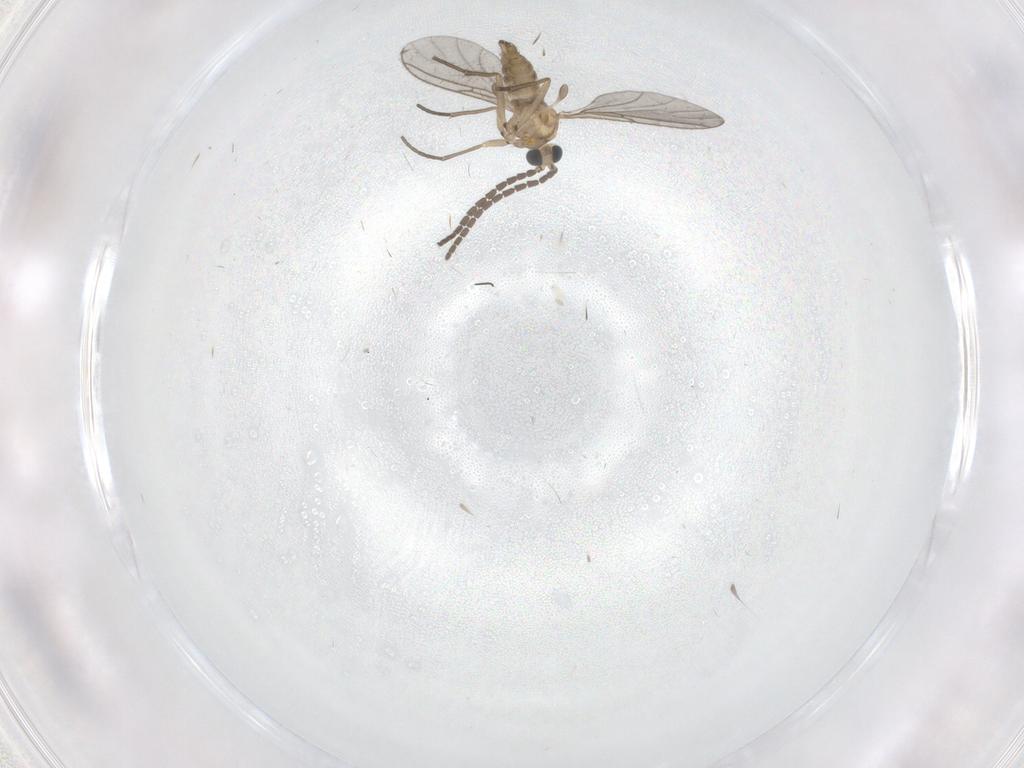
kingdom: Animalia
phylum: Arthropoda
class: Insecta
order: Diptera
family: Sciaridae
